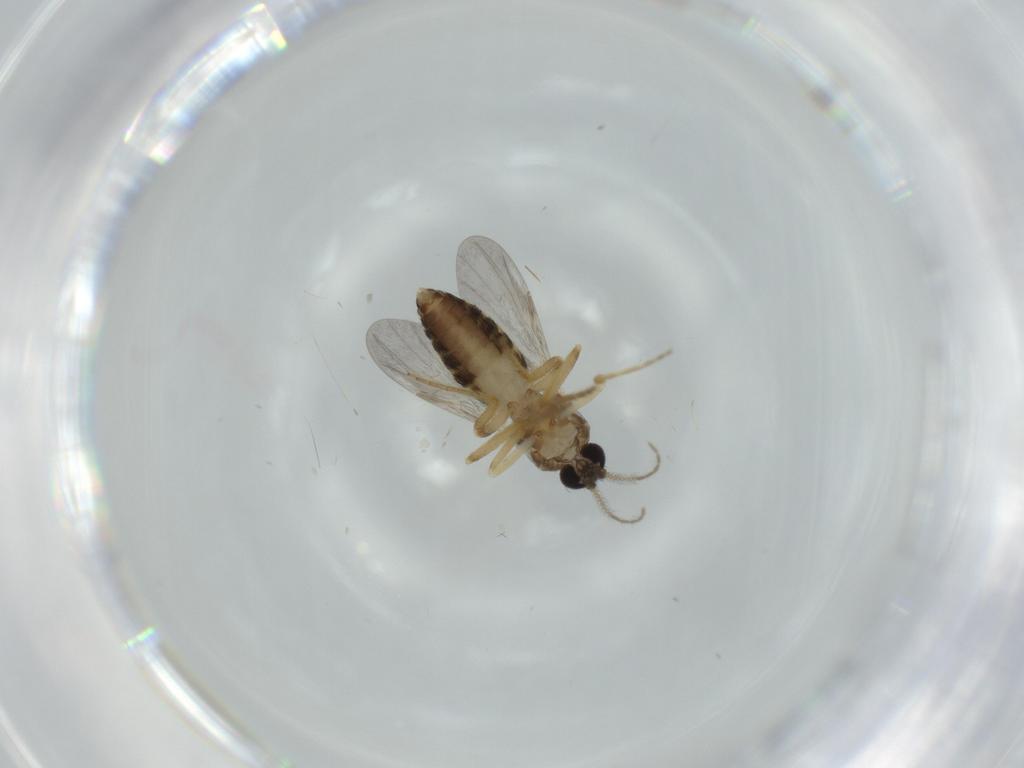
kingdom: Animalia
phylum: Arthropoda
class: Insecta
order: Diptera
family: Ceratopogonidae
